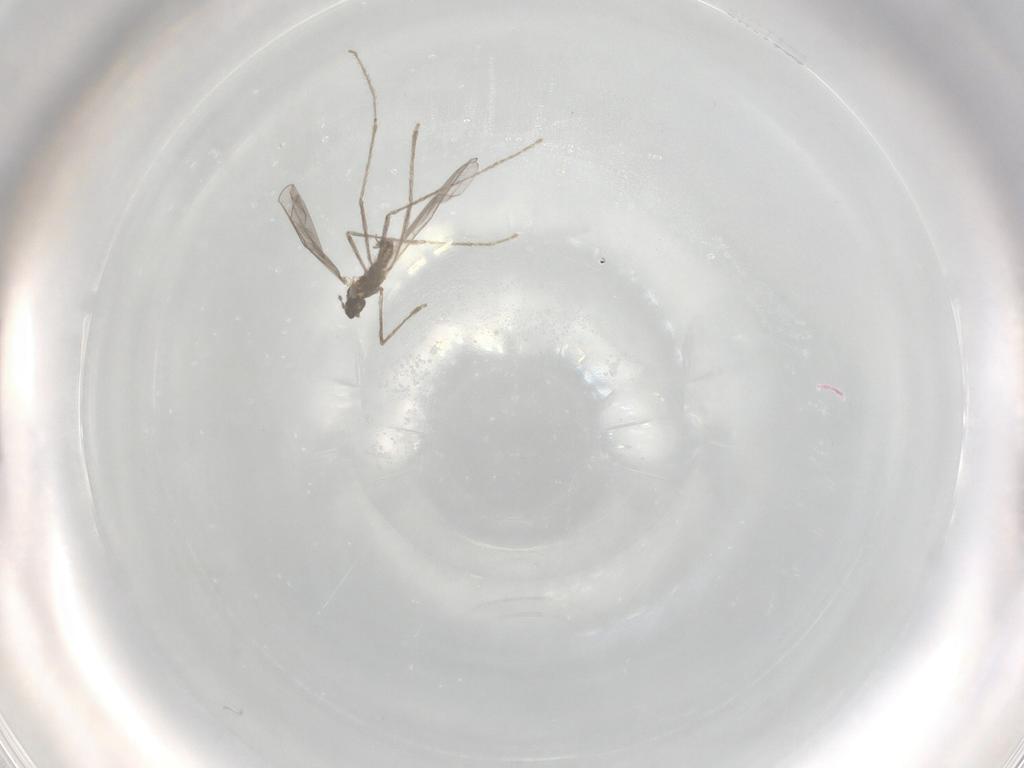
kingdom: Animalia
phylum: Arthropoda
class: Insecta
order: Diptera
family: Cecidomyiidae
